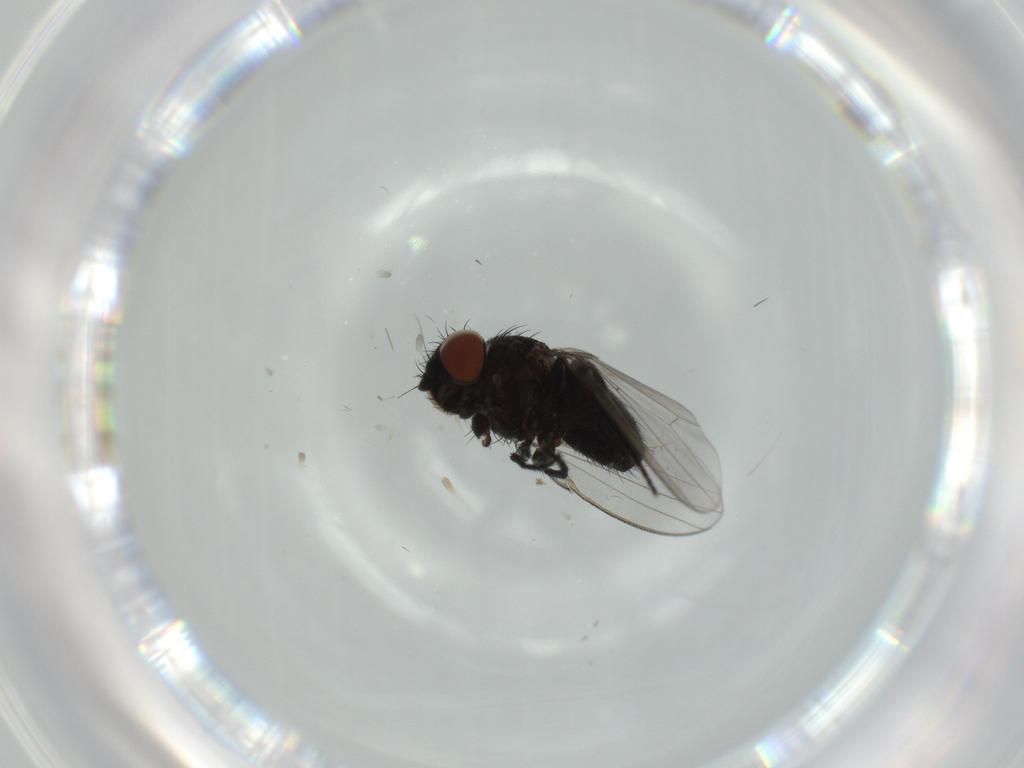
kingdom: Animalia
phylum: Arthropoda
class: Insecta
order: Diptera
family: Milichiidae
